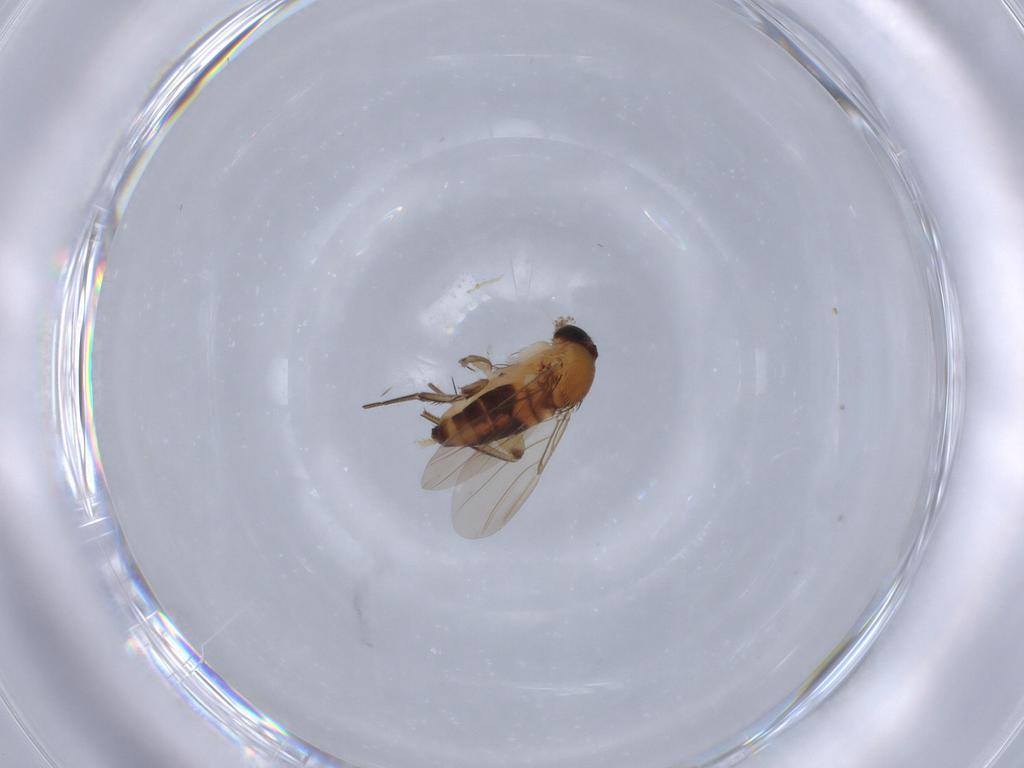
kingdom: Animalia
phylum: Arthropoda
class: Insecta
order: Diptera
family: Phoridae
